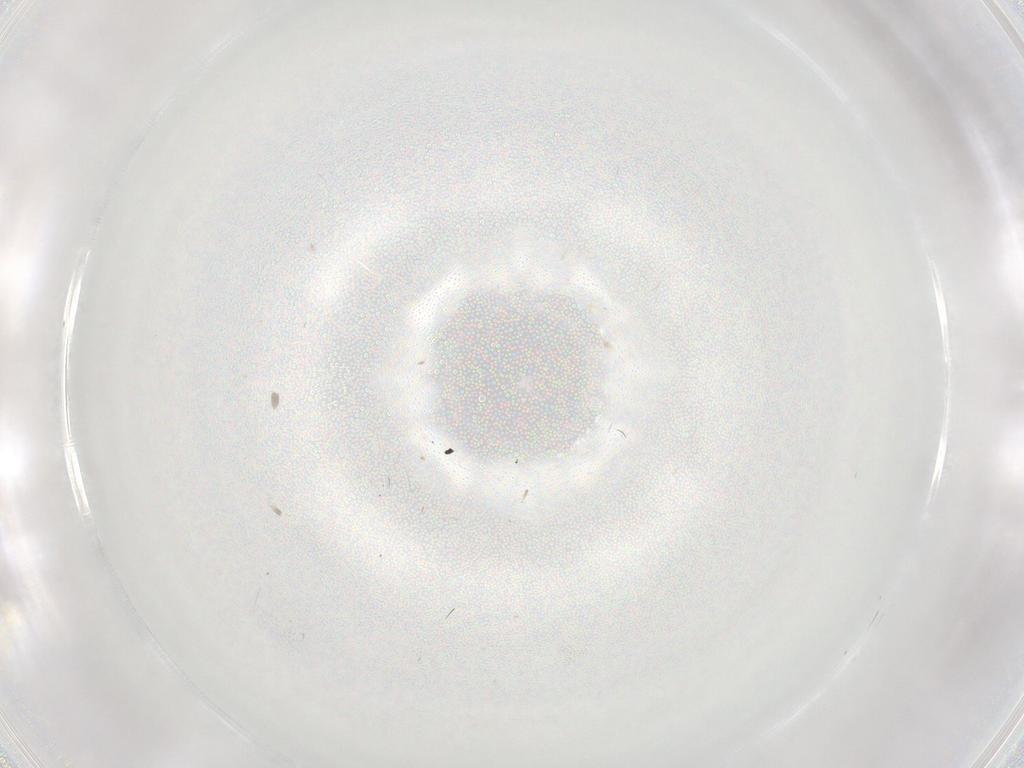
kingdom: Animalia
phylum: Arthropoda
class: Insecta
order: Diptera
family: Cecidomyiidae
